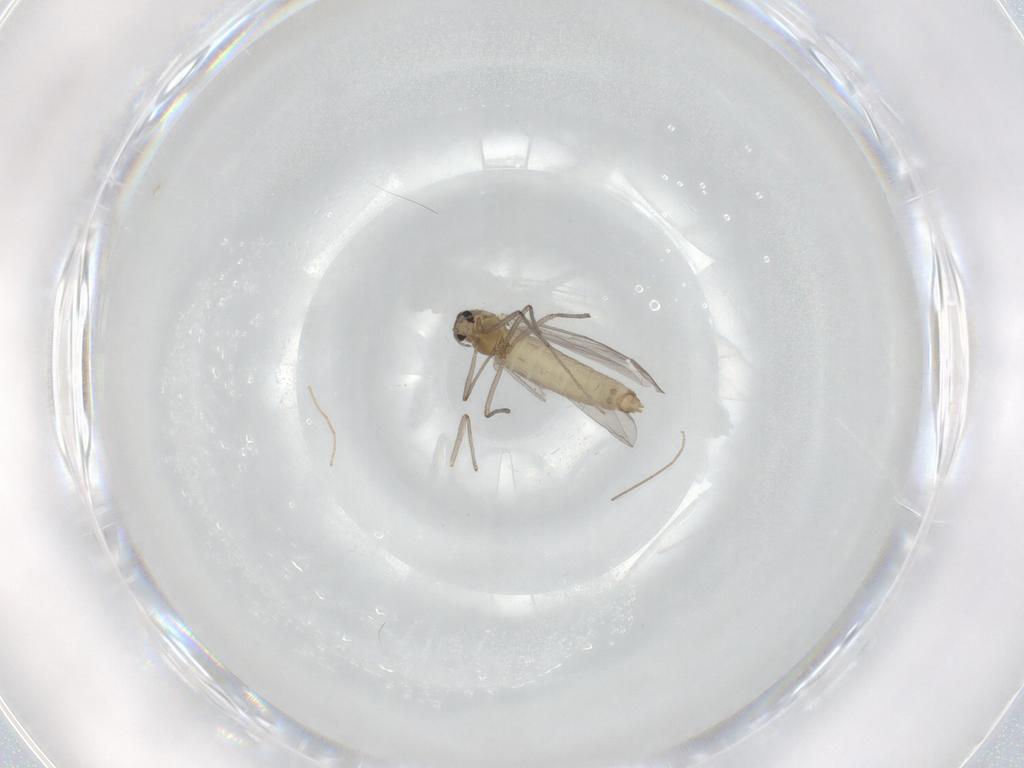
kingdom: Animalia
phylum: Arthropoda
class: Insecta
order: Diptera
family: Chironomidae
